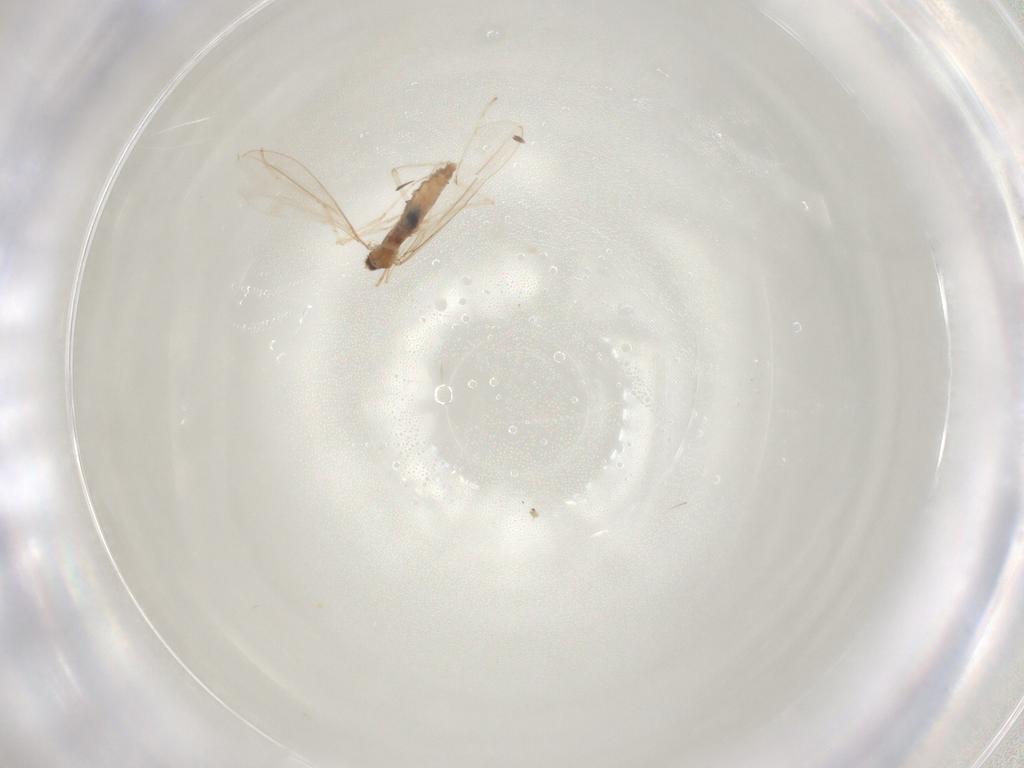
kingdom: Animalia
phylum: Arthropoda
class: Insecta
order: Diptera
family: Cecidomyiidae
